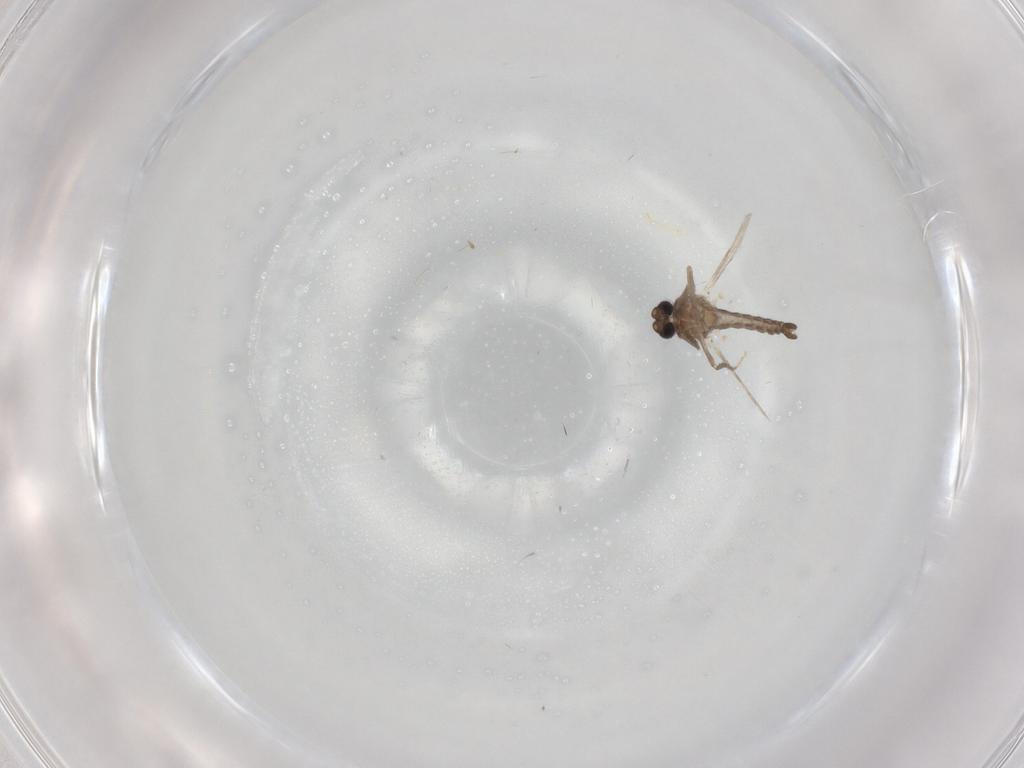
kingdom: Animalia
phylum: Arthropoda
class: Insecta
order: Diptera
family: Ceratopogonidae
